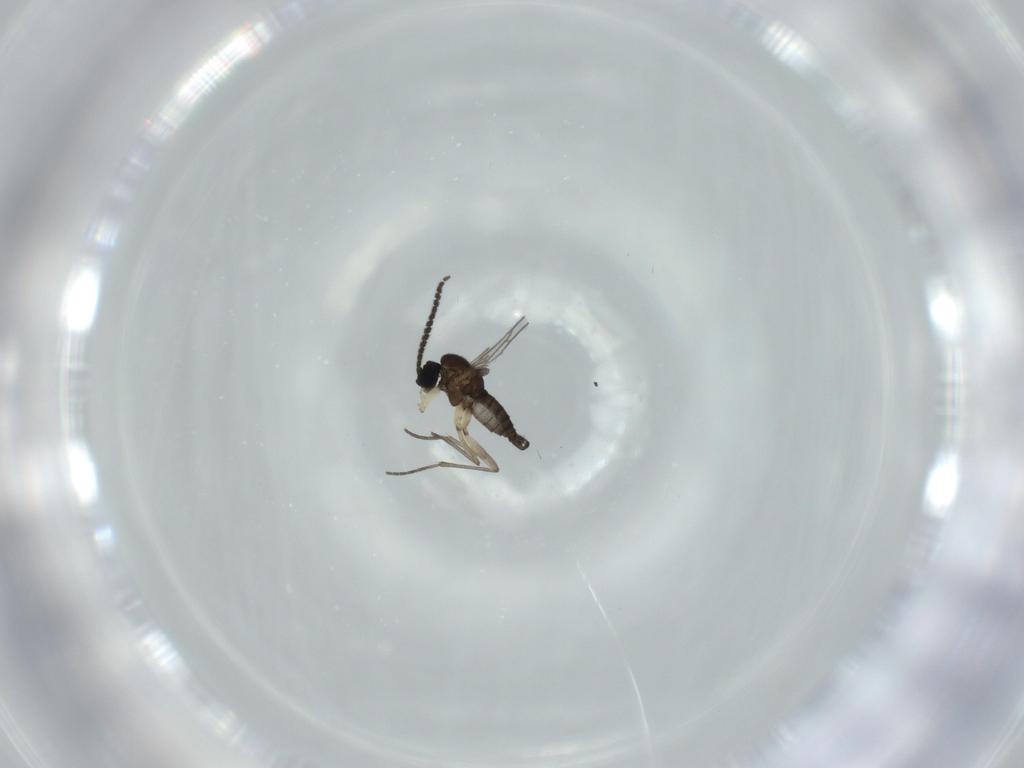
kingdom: Animalia
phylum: Arthropoda
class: Insecta
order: Diptera
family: Sciaridae
